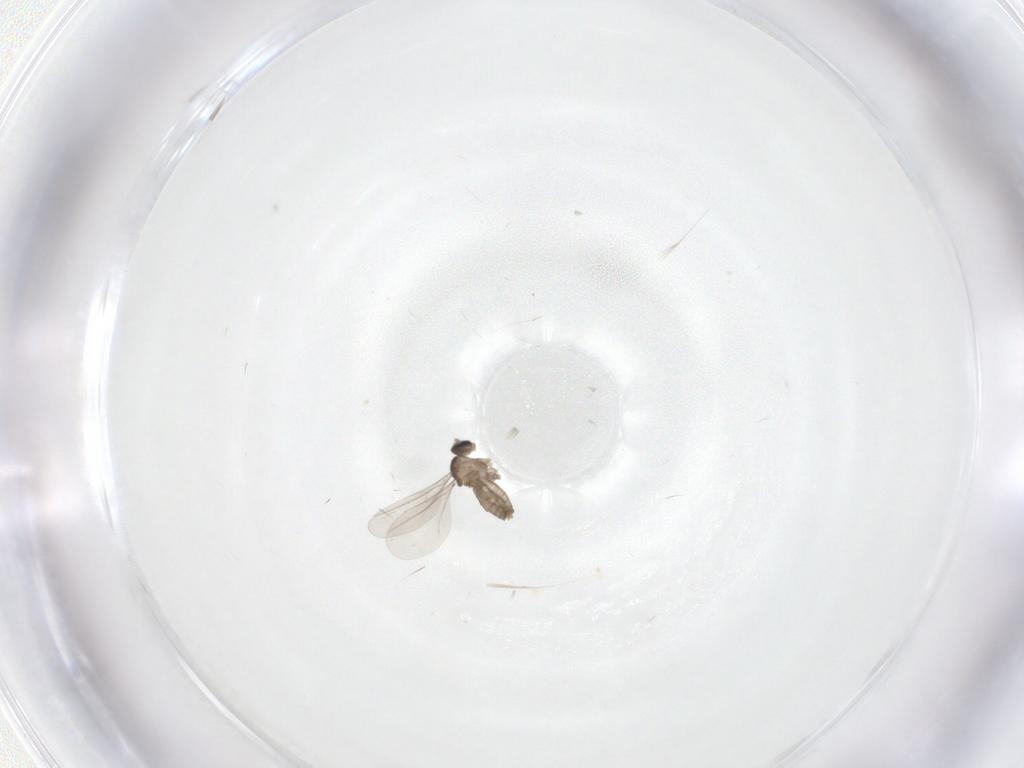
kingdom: Animalia
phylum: Arthropoda
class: Insecta
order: Diptera
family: Cecidomyiidae
